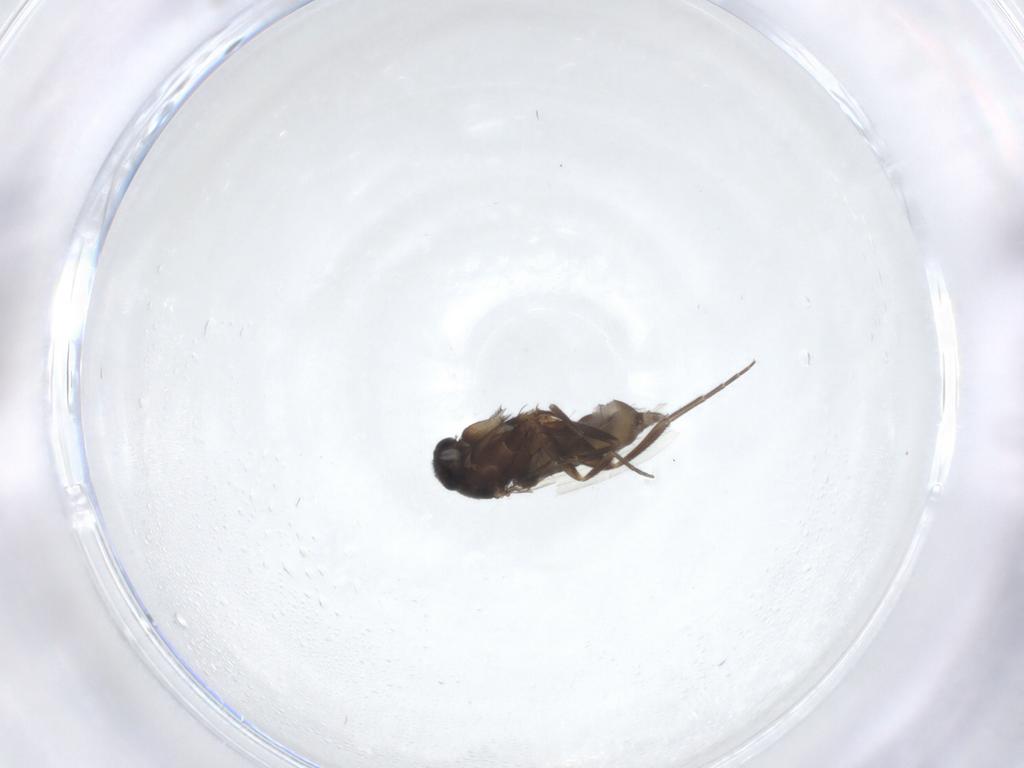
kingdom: Animalia
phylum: Arthropoda
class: Insecta
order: Diptera
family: Phoridae
